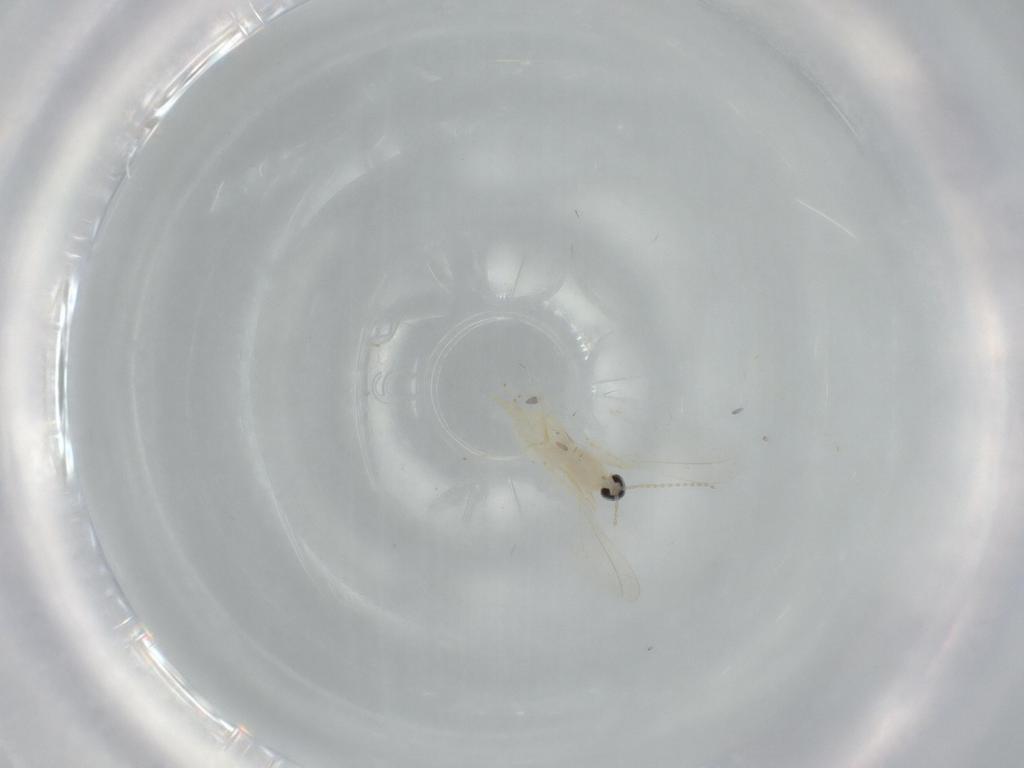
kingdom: Animalia
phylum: Arthropoda
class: Insecta
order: Diptera
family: Cecidomyiidae
